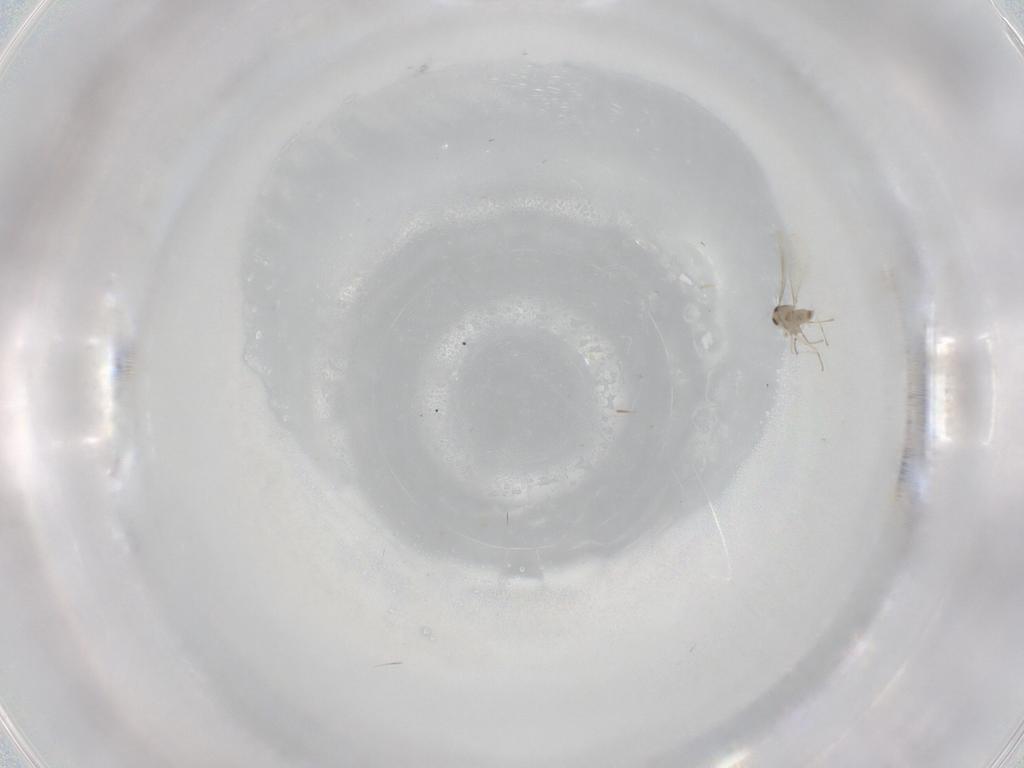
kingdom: Animalia
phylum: Arthropoda
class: Insecta
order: Diptera
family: Cecidomyiidae
